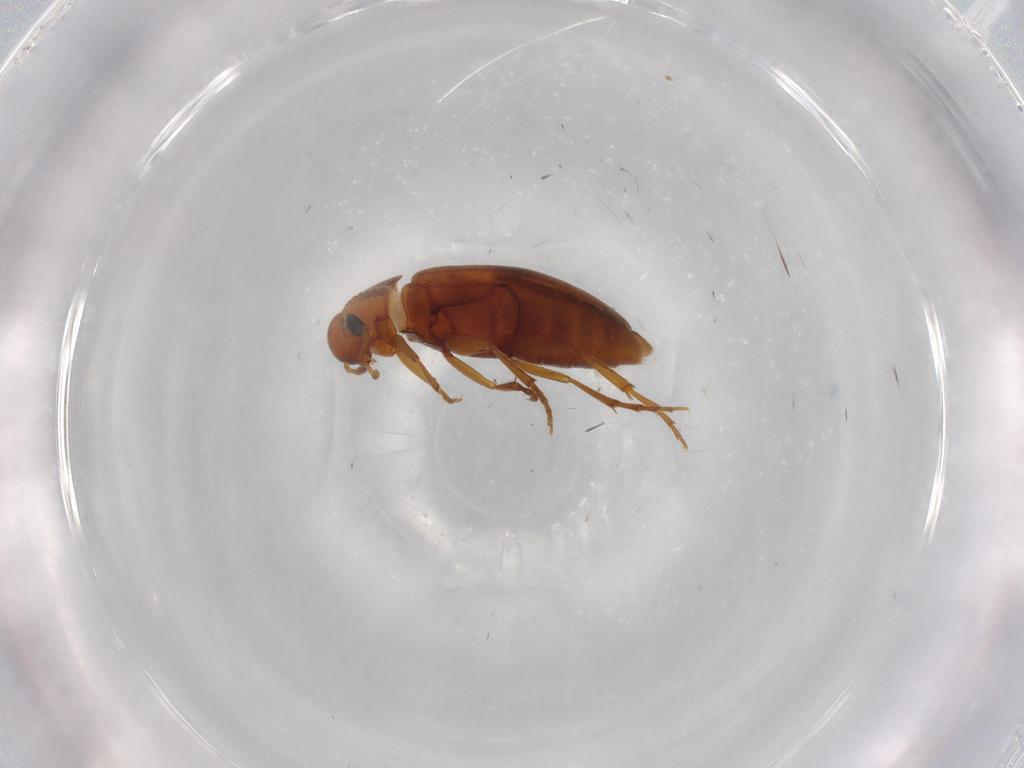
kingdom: Animalia
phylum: Arthropoda
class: Insecta
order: Coleoptera
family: Scraptiidae
